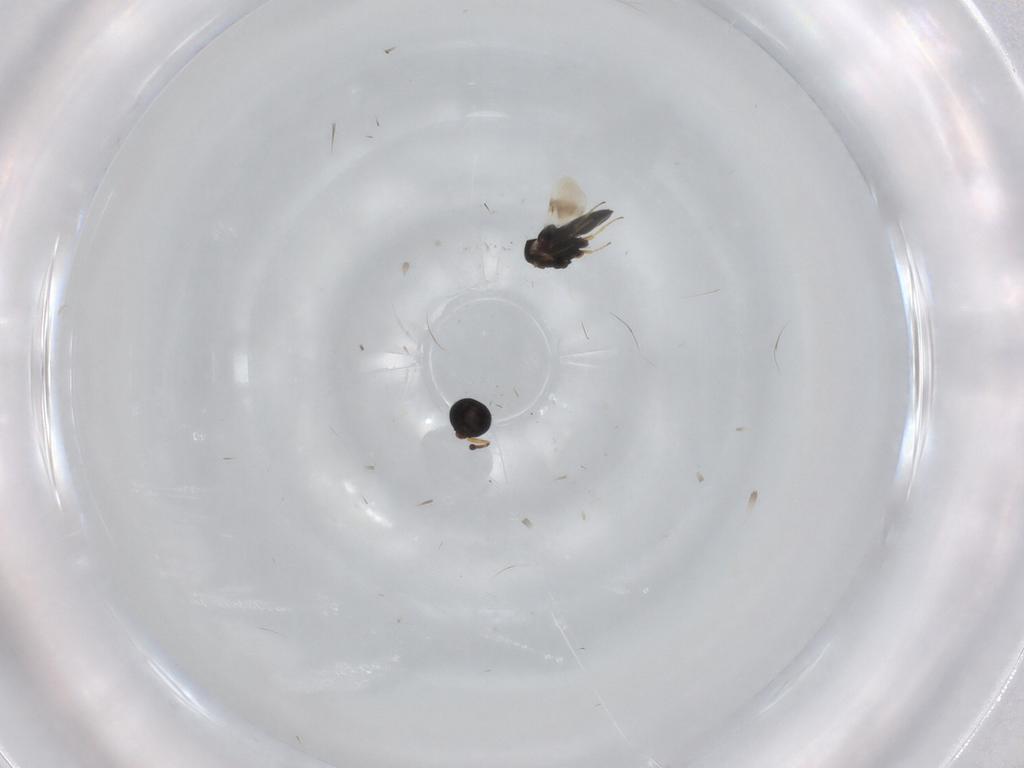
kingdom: Animalia
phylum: Arthropoda
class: Insecta
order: Hymenoptera
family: Scelionidae
